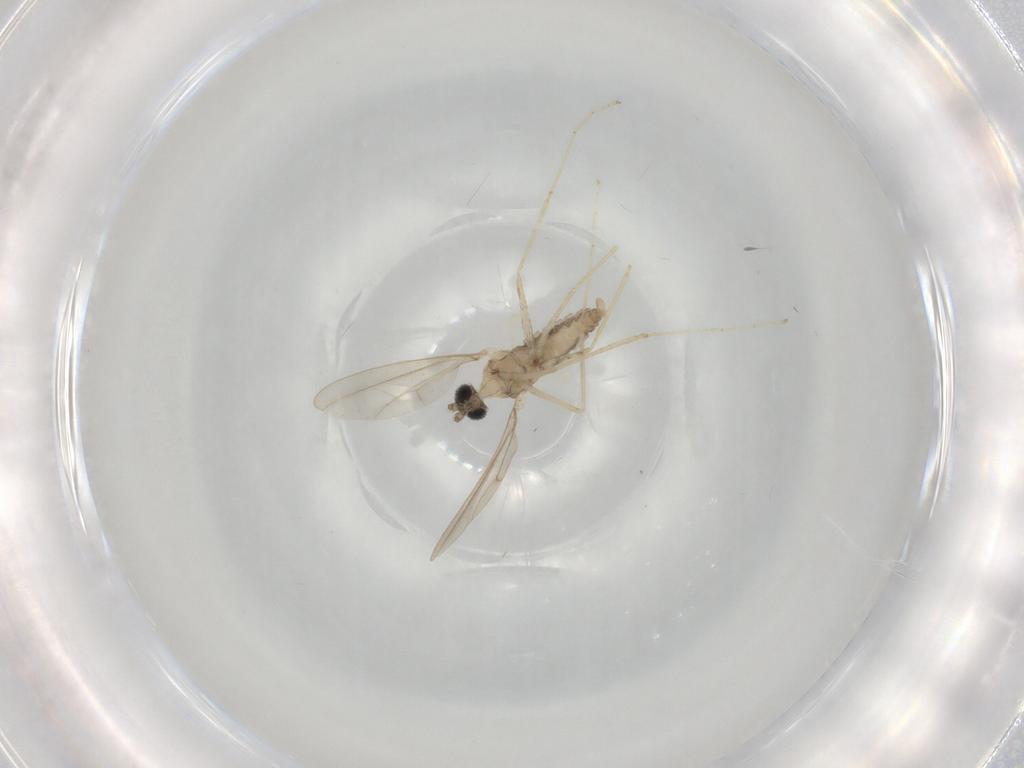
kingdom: Animalia
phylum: Arthropoda
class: Insecta
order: Diptera
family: Cecidomyiidae
